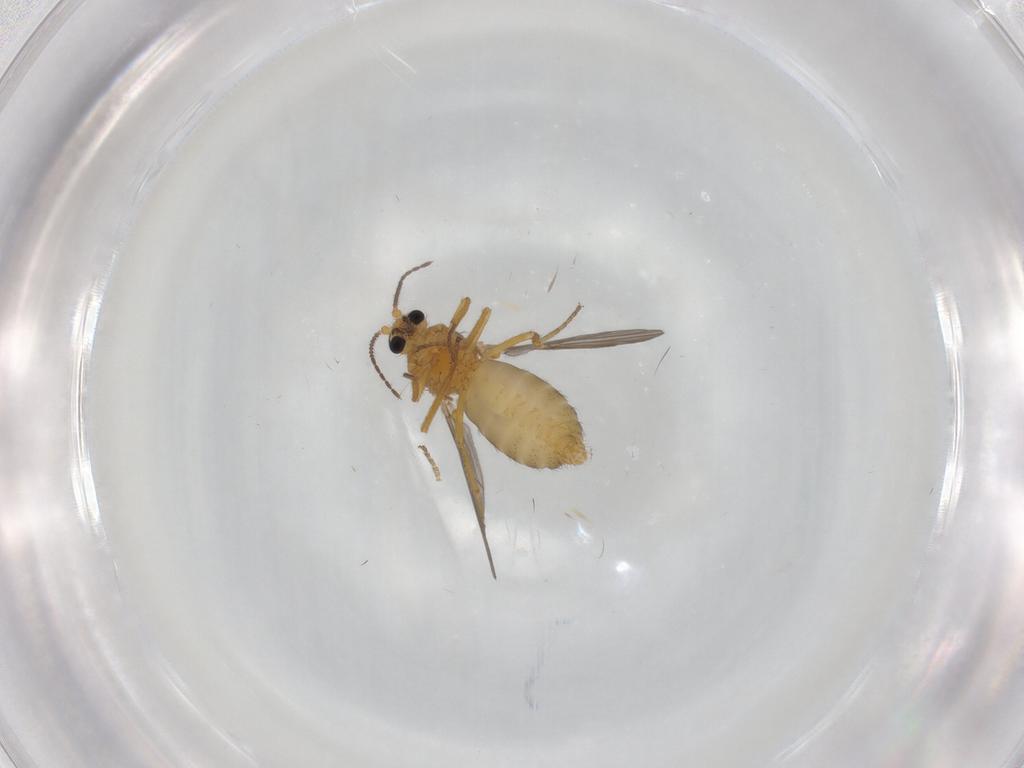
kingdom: Animalia
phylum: Arthropoda
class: Insecta
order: Diptera
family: Ceratopogonidae
